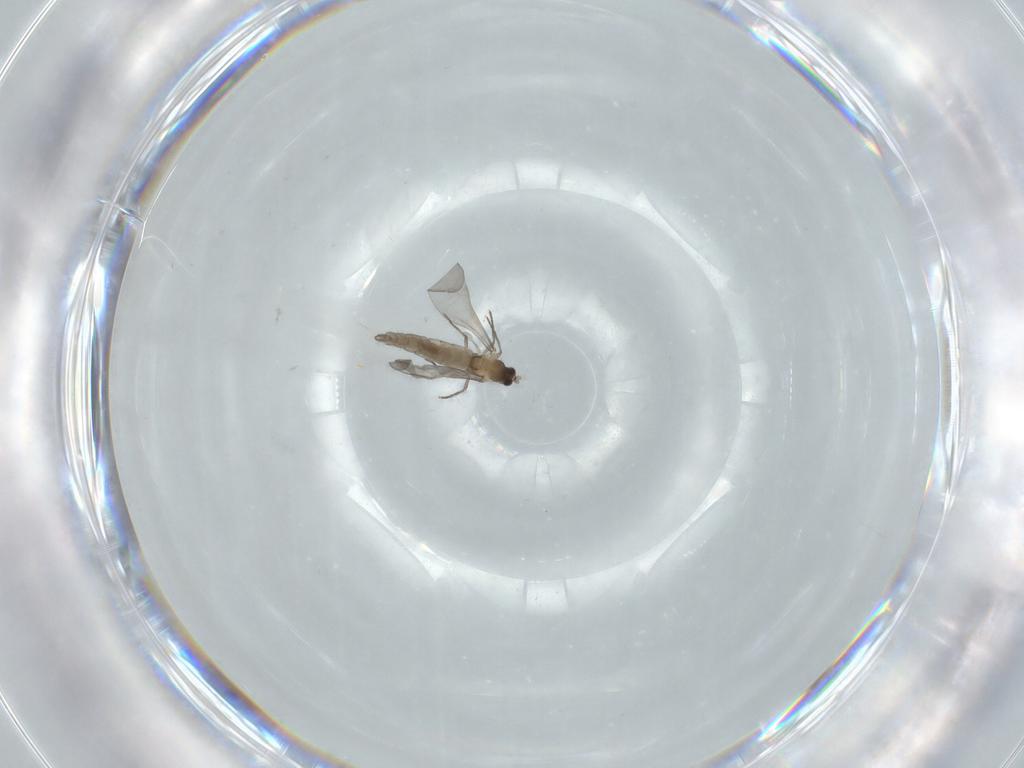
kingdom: Animalia
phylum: Arthropoda
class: Insecta
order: Diptera
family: Cecidomyiidae
